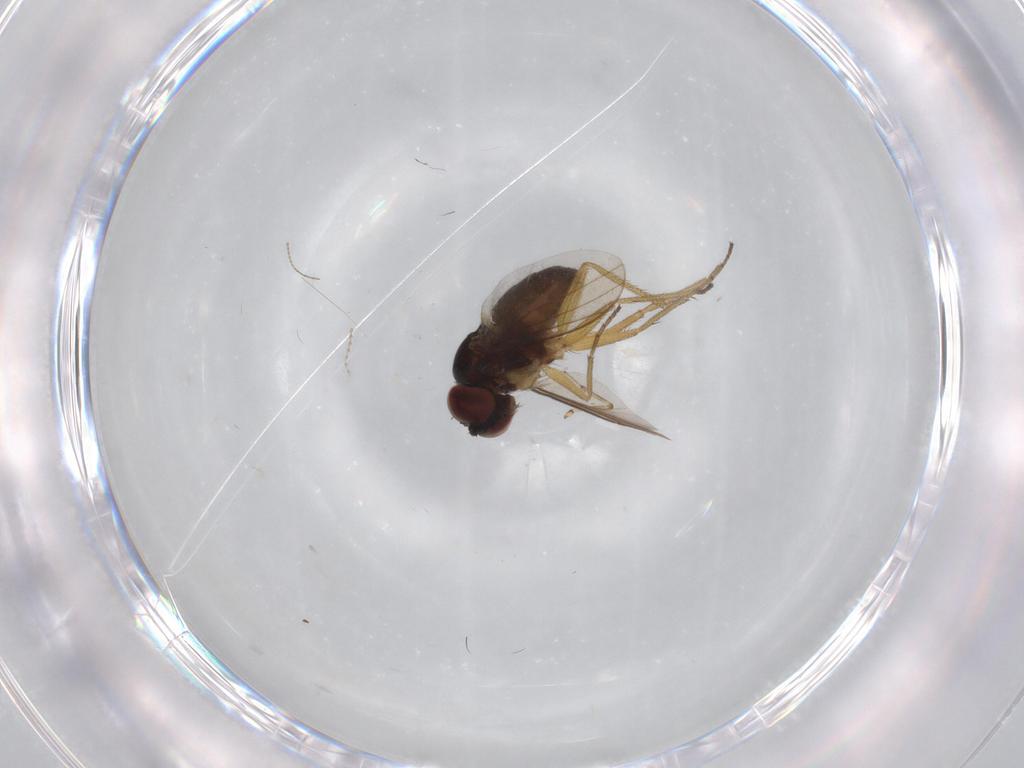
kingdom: Animalia
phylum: Arthropoda
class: Insecta
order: Diptera
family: Dolichopodidae
